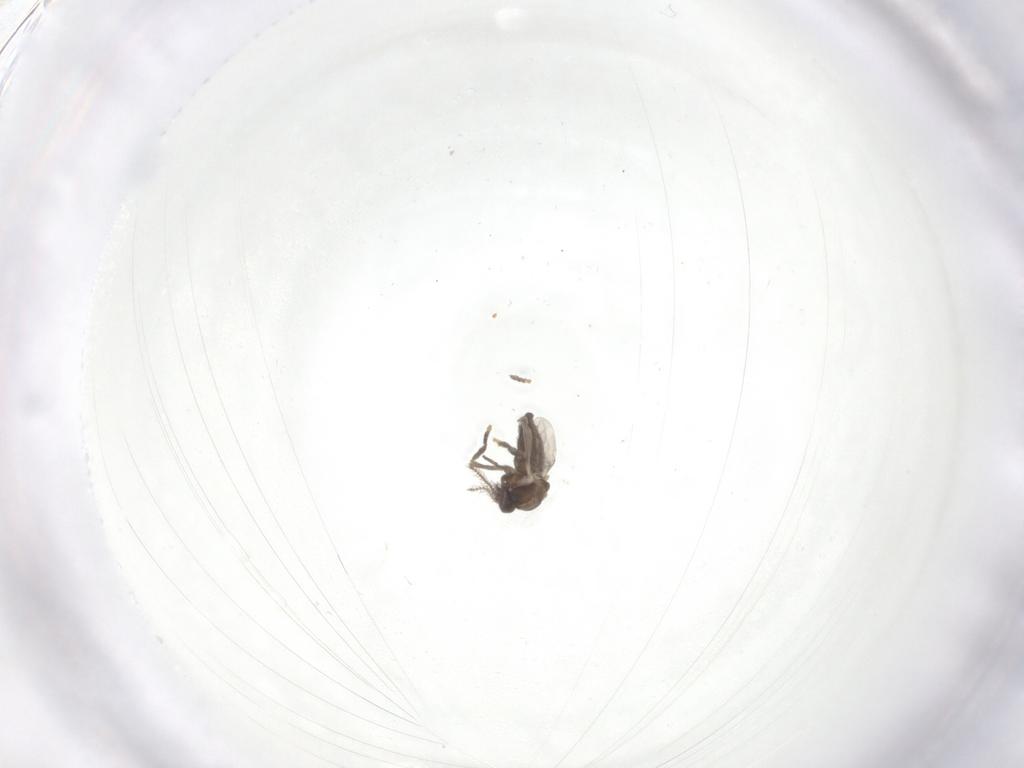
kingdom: Animalia
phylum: Arthropoda
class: Insecta
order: Diptera
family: Ceratopogonidae
